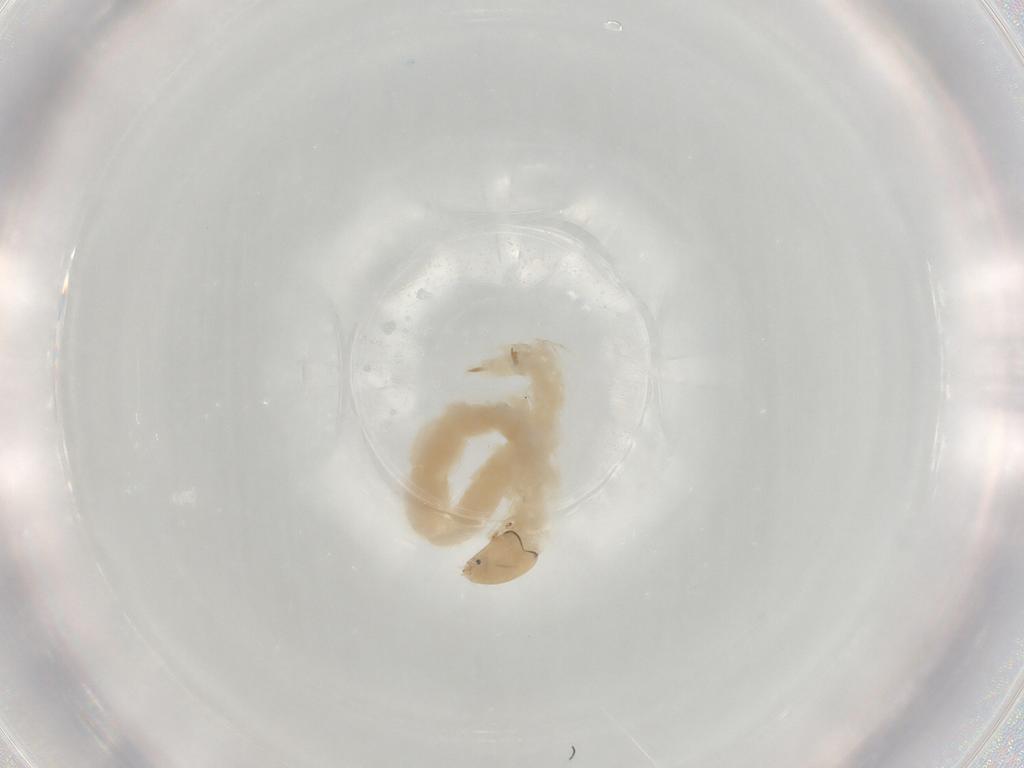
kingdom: Animalia
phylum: Arthropoda
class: Insecta
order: Diptera
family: Chironomidae
